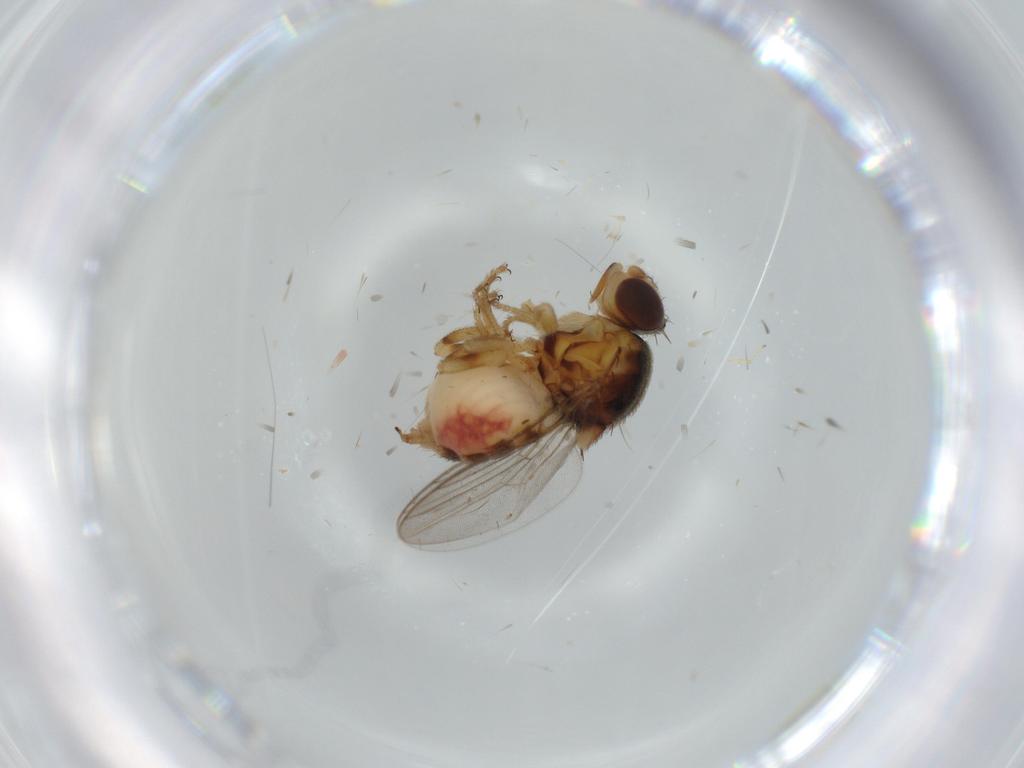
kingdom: Animalia
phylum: Arthropoda
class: Insecta
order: Diptera
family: Chloropidae
